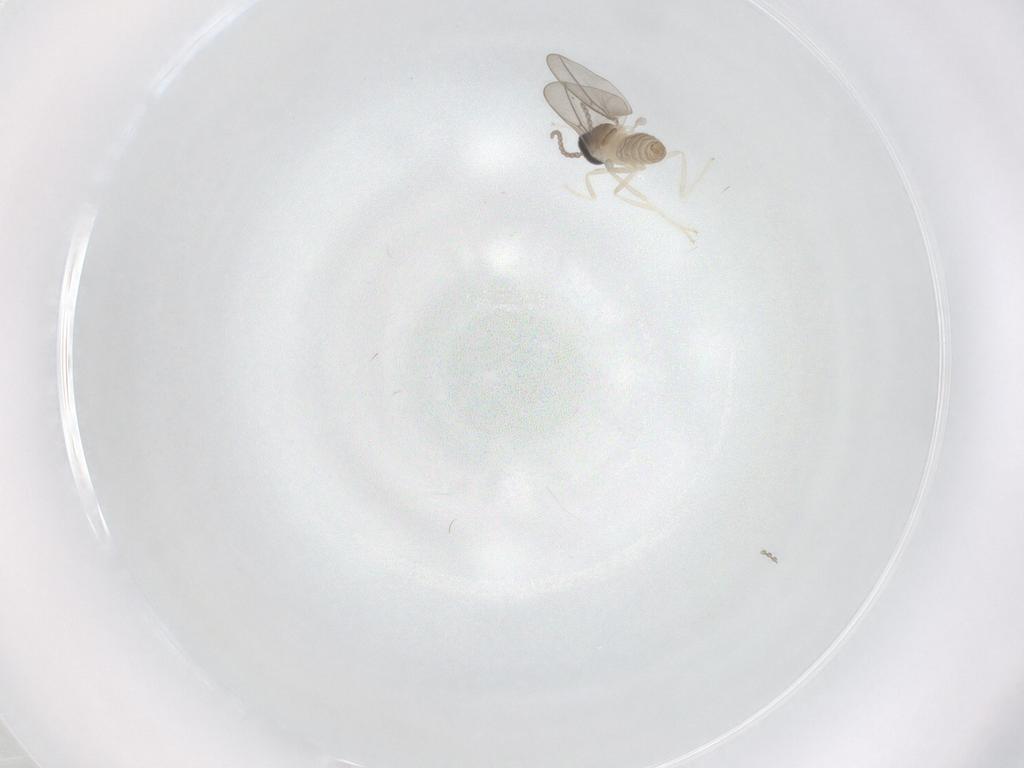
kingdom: Animalia
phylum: Arthropoda
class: Insecta
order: Diptera
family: Cecidomyiidae
